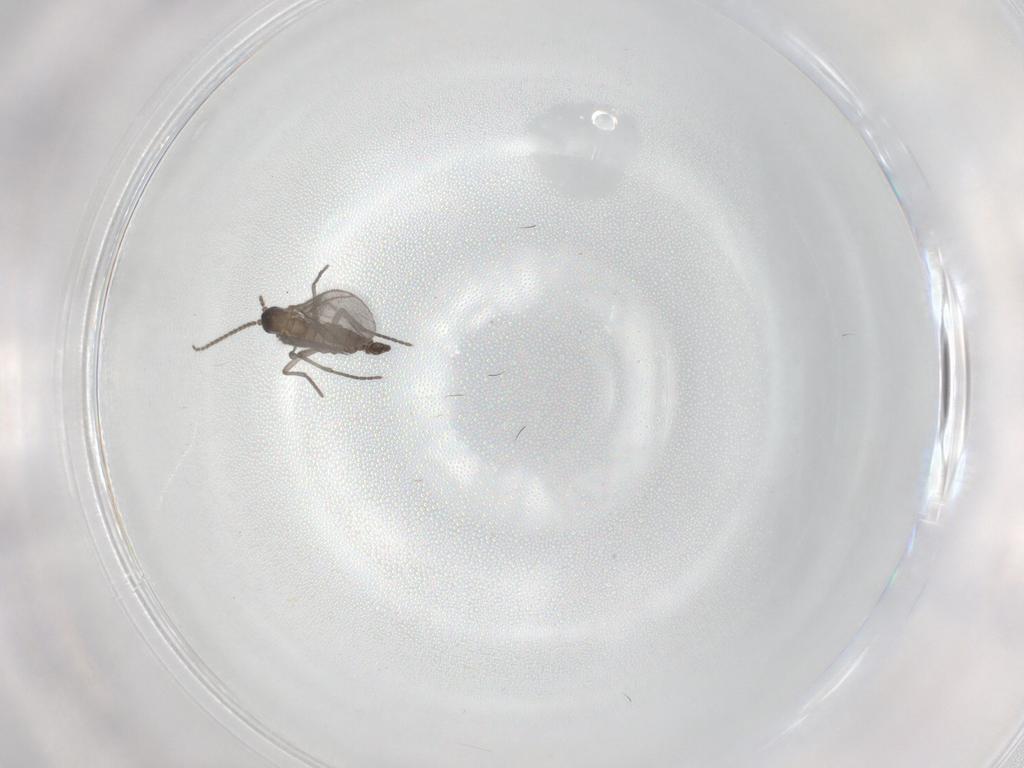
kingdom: Animalia
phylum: Arthropoda
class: Insecta
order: Diptera
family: Sciaridae
